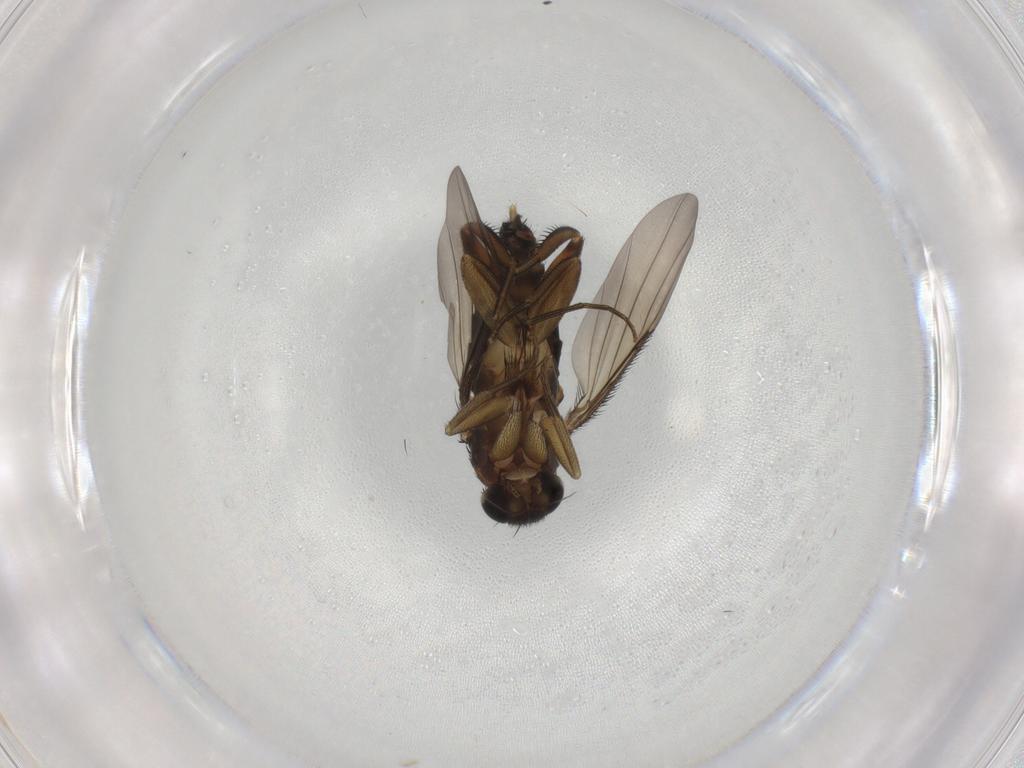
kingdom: Animalia
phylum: Arthropoda
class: Insecta
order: Diptera
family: Phoridae
